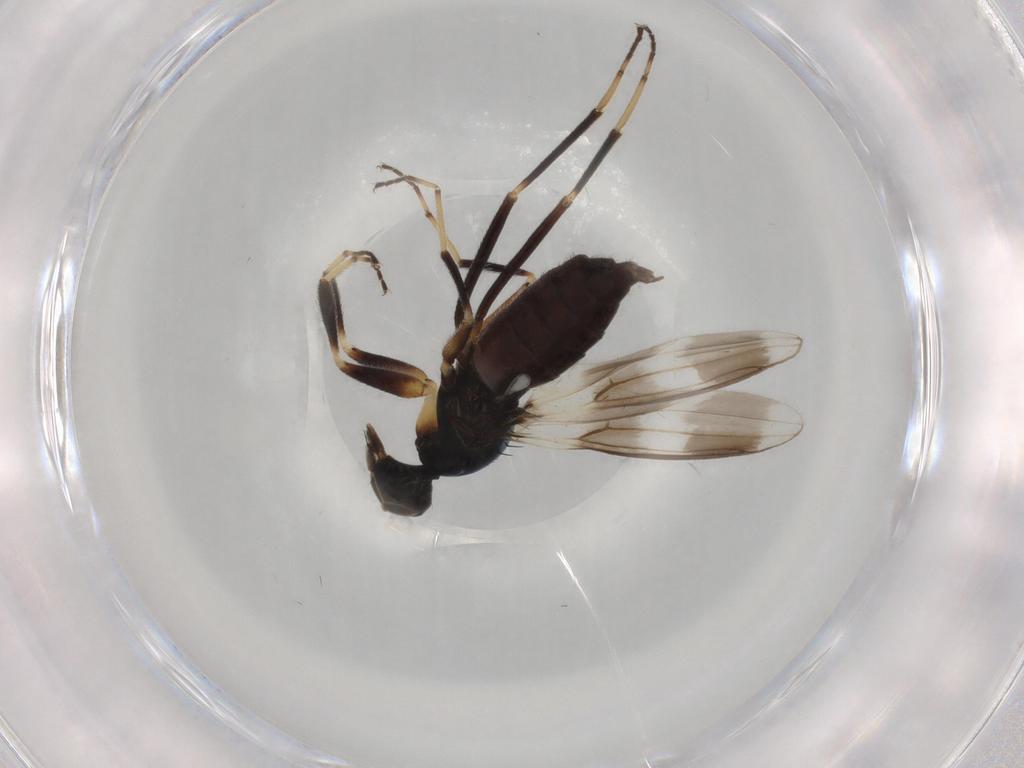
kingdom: Animalia
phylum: Arthropoda
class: Insecta
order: Diptera
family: Hybotidae
